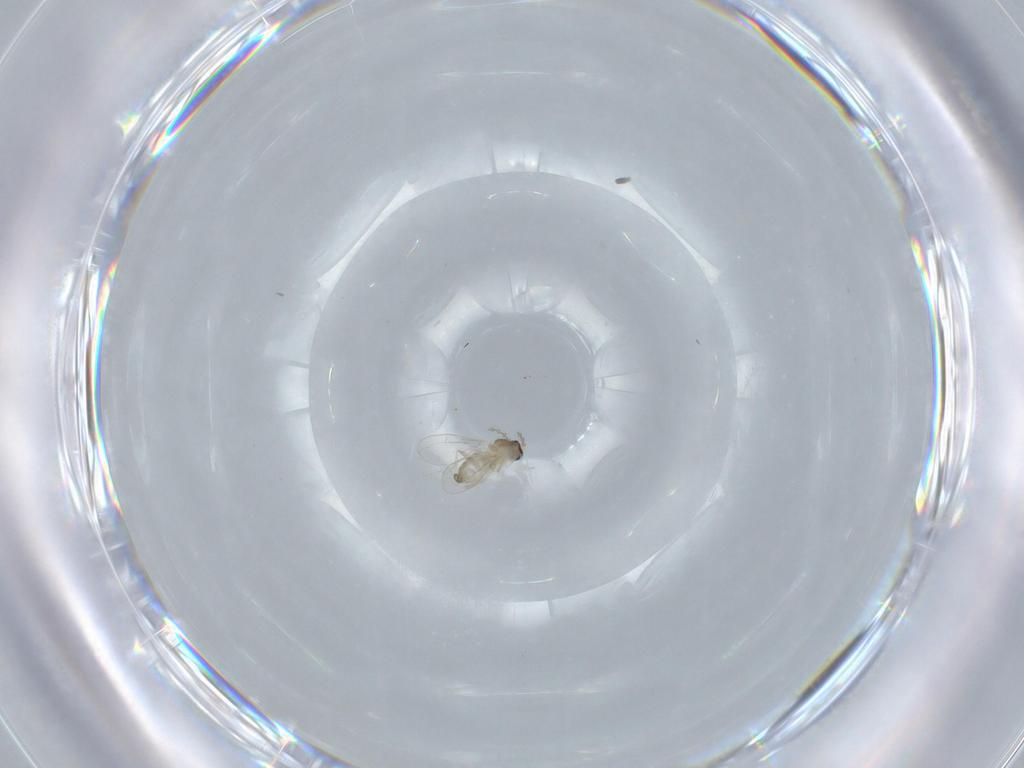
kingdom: Animalia
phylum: Arthropoda
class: Insecta
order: Diptera
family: Cecidomyiidae
